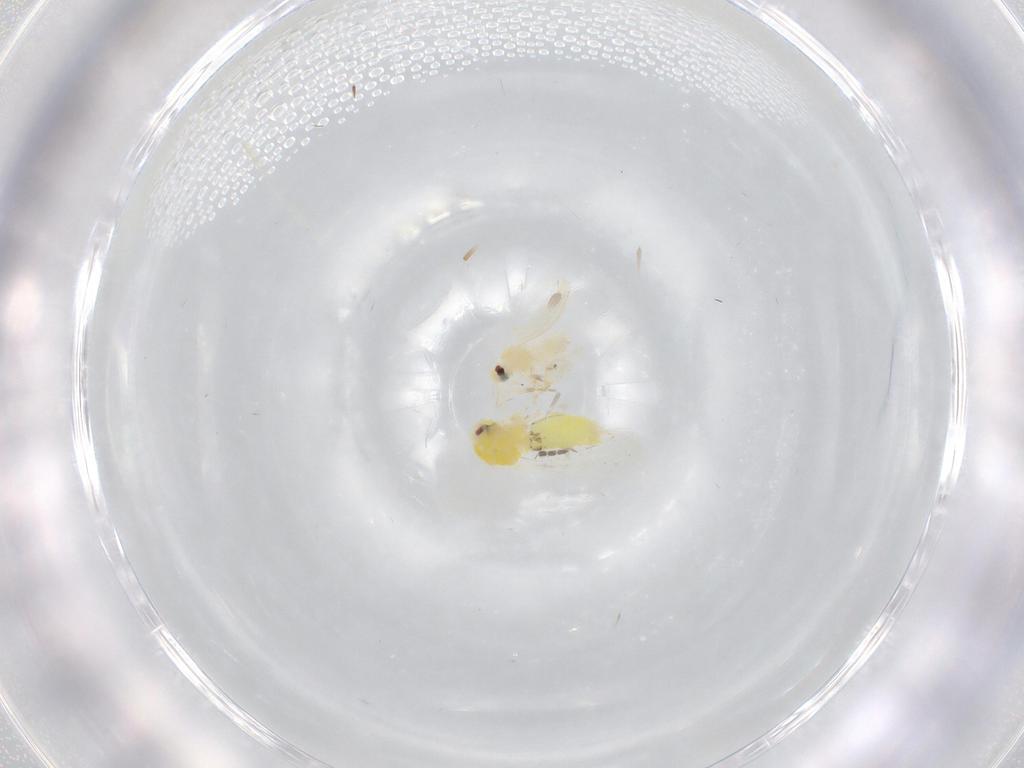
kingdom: Animalia
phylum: Arthropoda
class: Insecta
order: Hemiptera
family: Aleyrodidae
